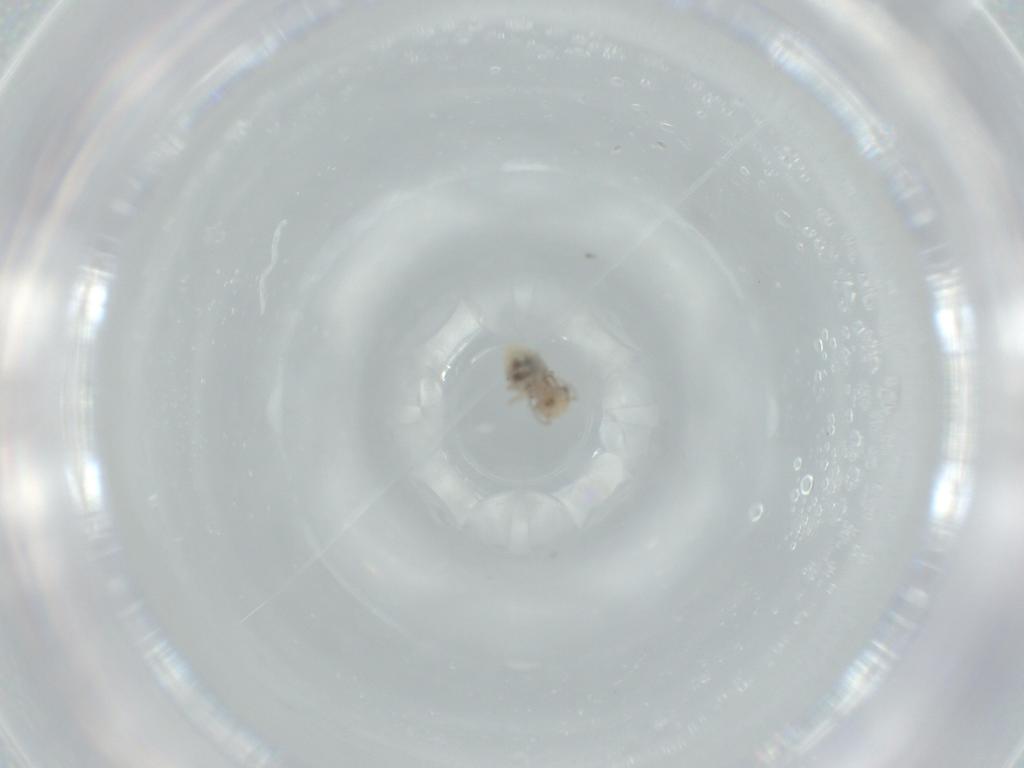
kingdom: Animalia
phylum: Arthropoda
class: Insecta
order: Psocodea
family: Lachesillidae
